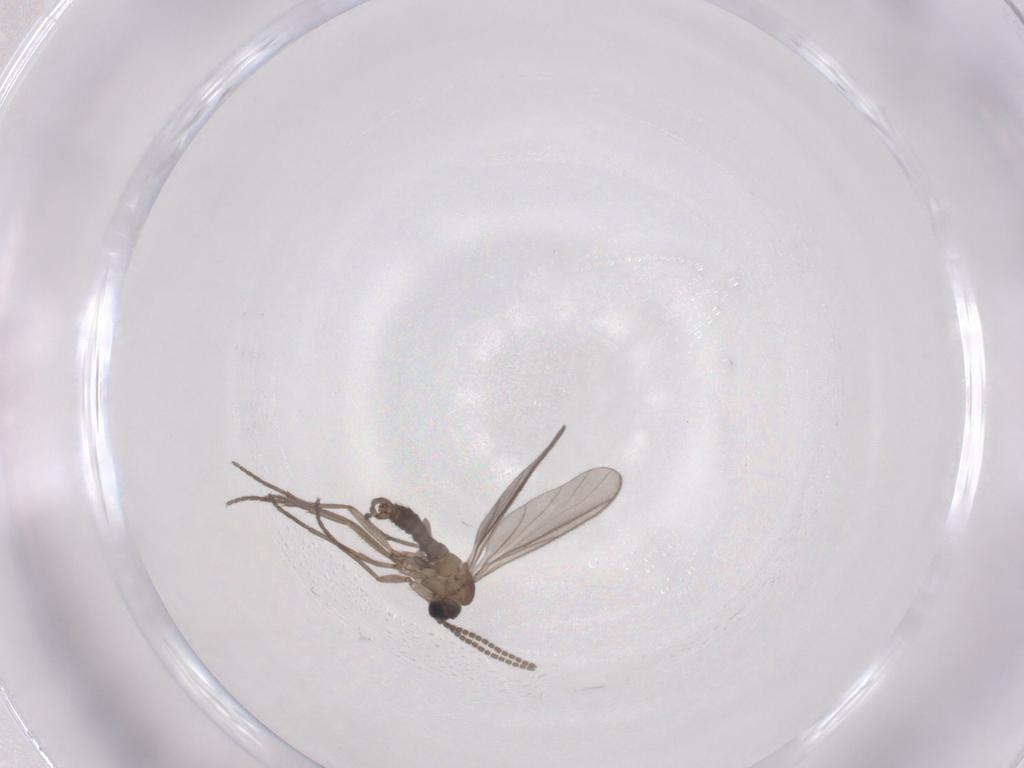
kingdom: Animalia
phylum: Arthropoda
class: Insecta
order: Diptera
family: Sciaridae
